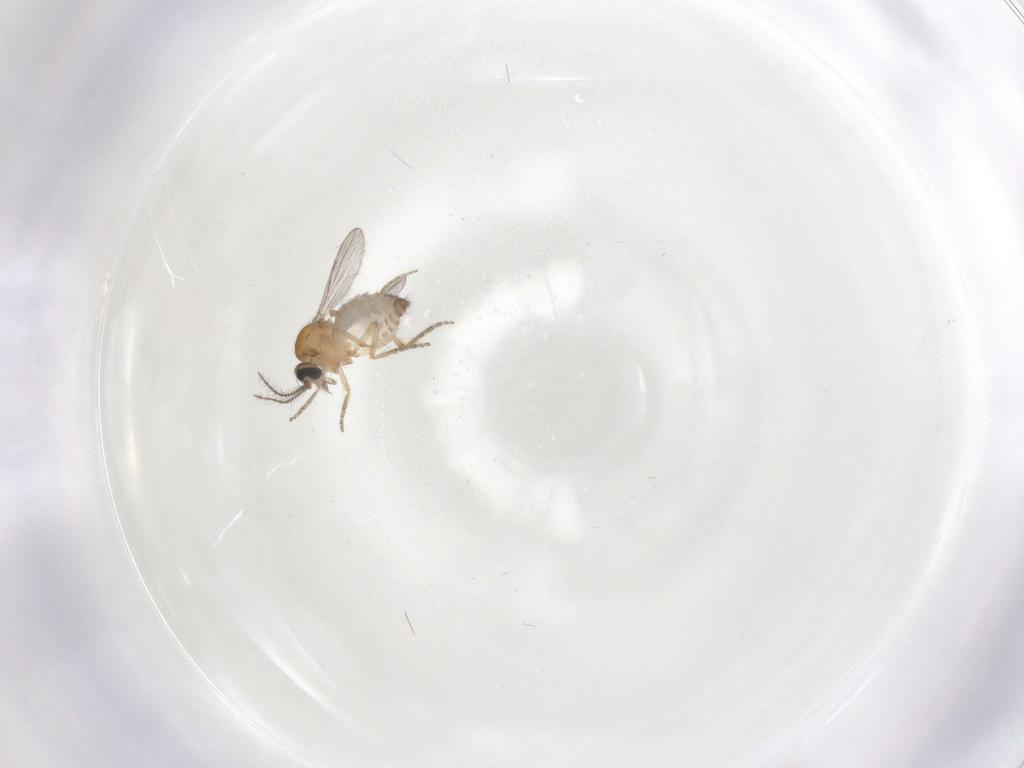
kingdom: Animalia
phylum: Arthropoda
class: Insecta
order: Diptera
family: Ceratopogonidae
